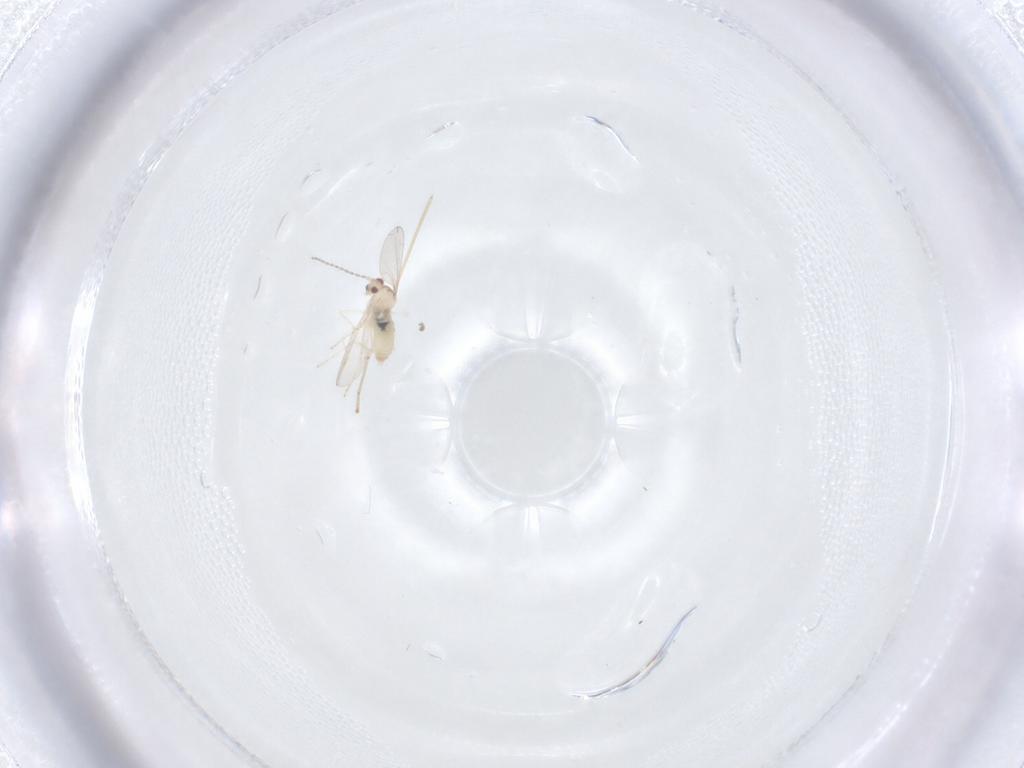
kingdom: Animalia
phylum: Arthropoda
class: Insecta
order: Diptera
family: Cecidomyiidae
